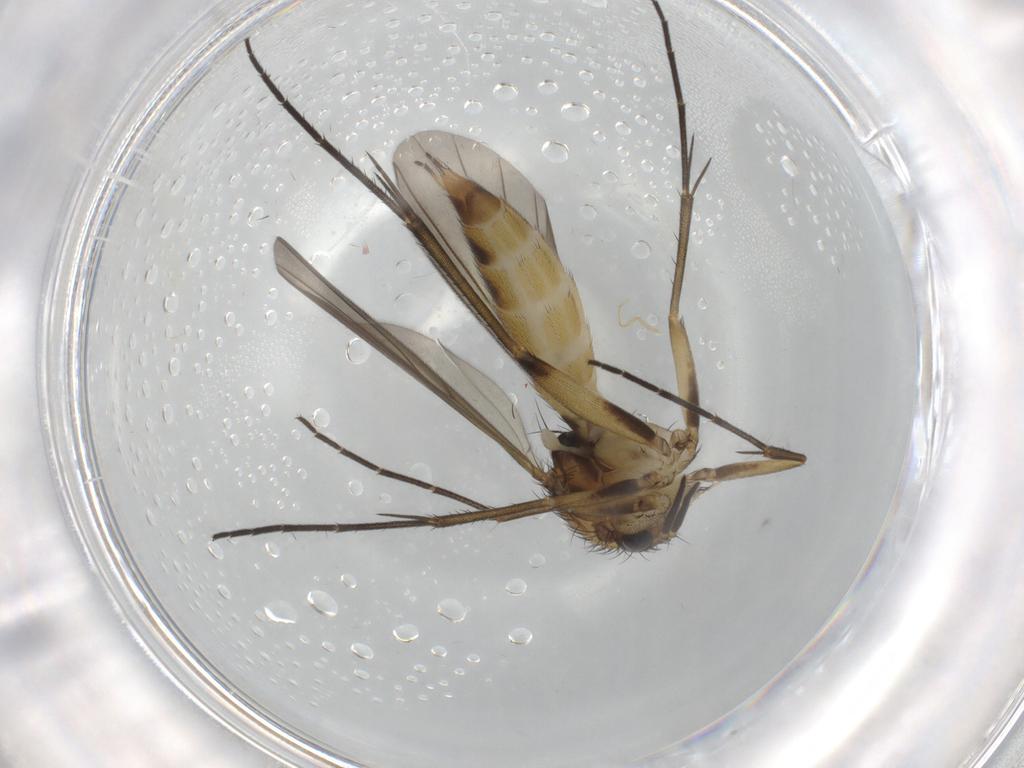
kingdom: Animalia
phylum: Arthropoda
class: Insecta
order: Diptera
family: Mycetophilidae
